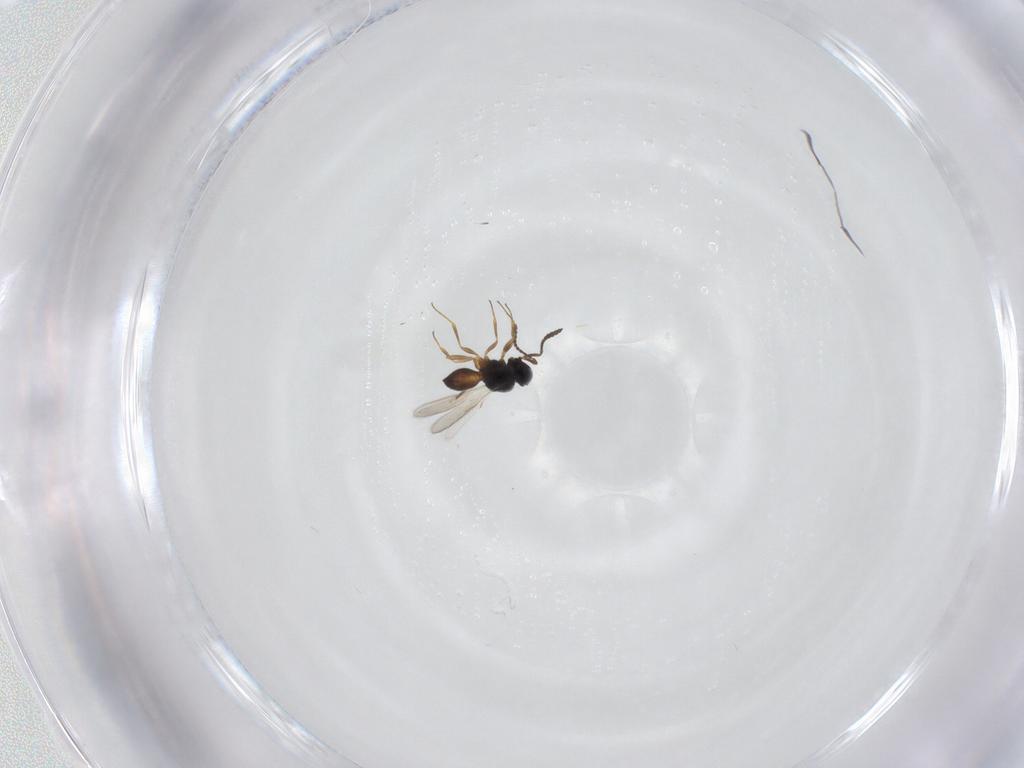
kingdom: Animalia
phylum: Arthropoda
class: Insecta
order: Hymenoptera
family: Scelionidae
